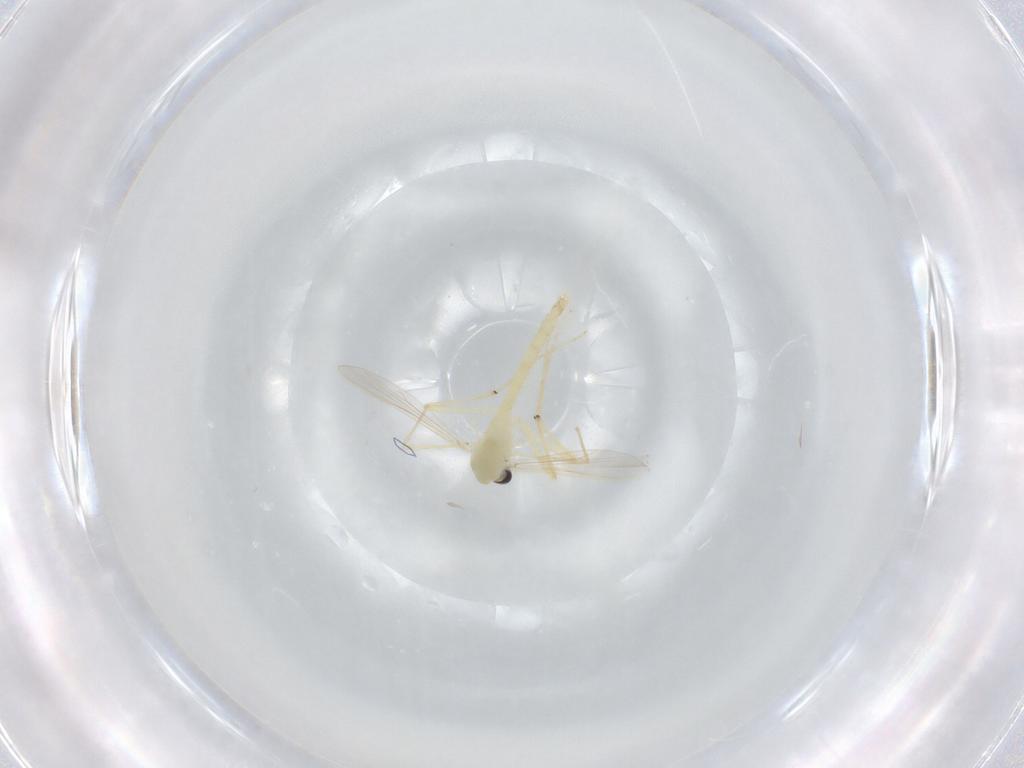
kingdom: Animalia
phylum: Arthropoda
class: Insecta
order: Diptera
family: Chironomidae
